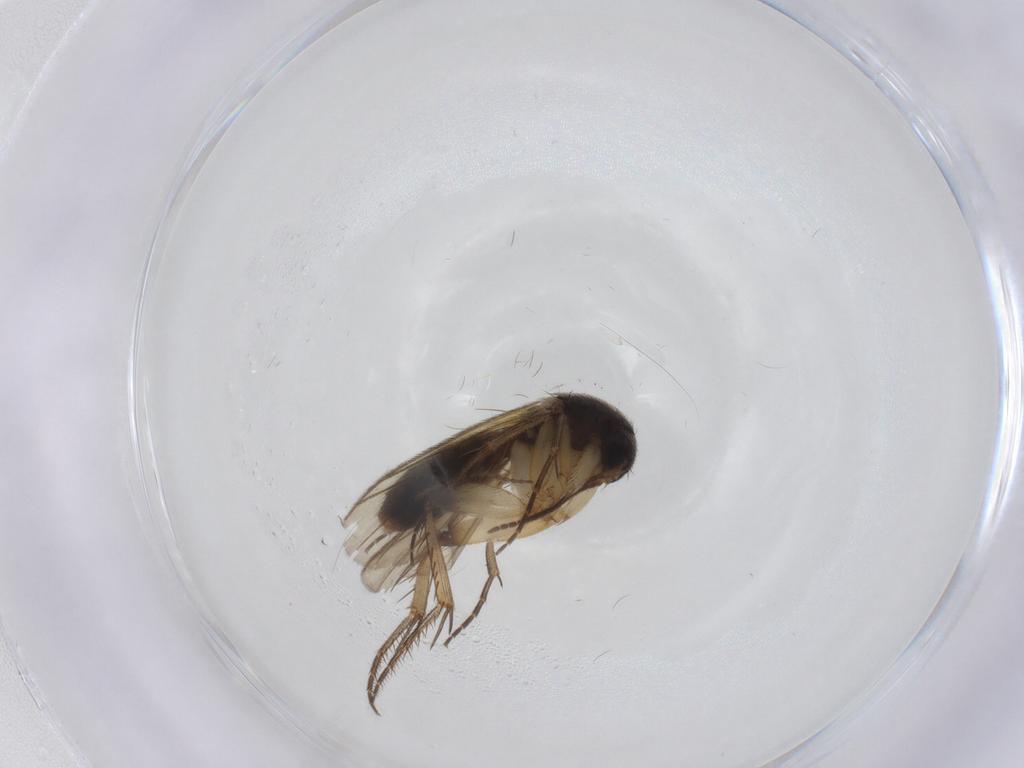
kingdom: Animalia
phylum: Arthropoda
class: Insecta
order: Diptera
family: Mycetophilidae
